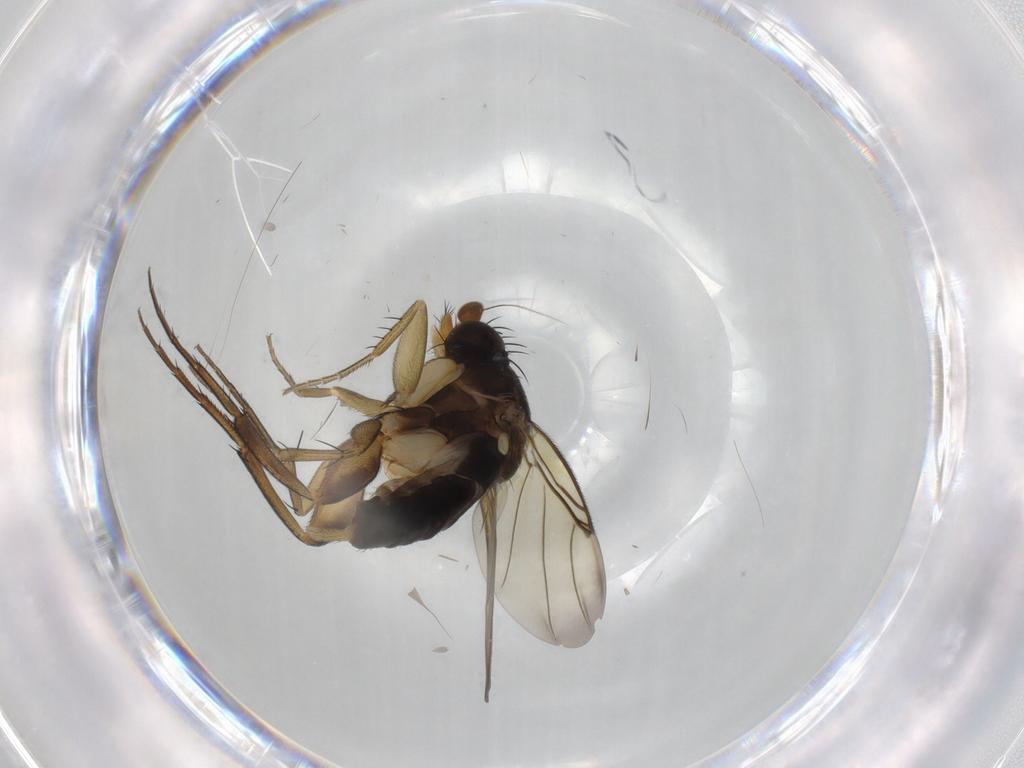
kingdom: Animalia
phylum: Arthropoda
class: Insecta
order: Diptera
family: Phoridae
